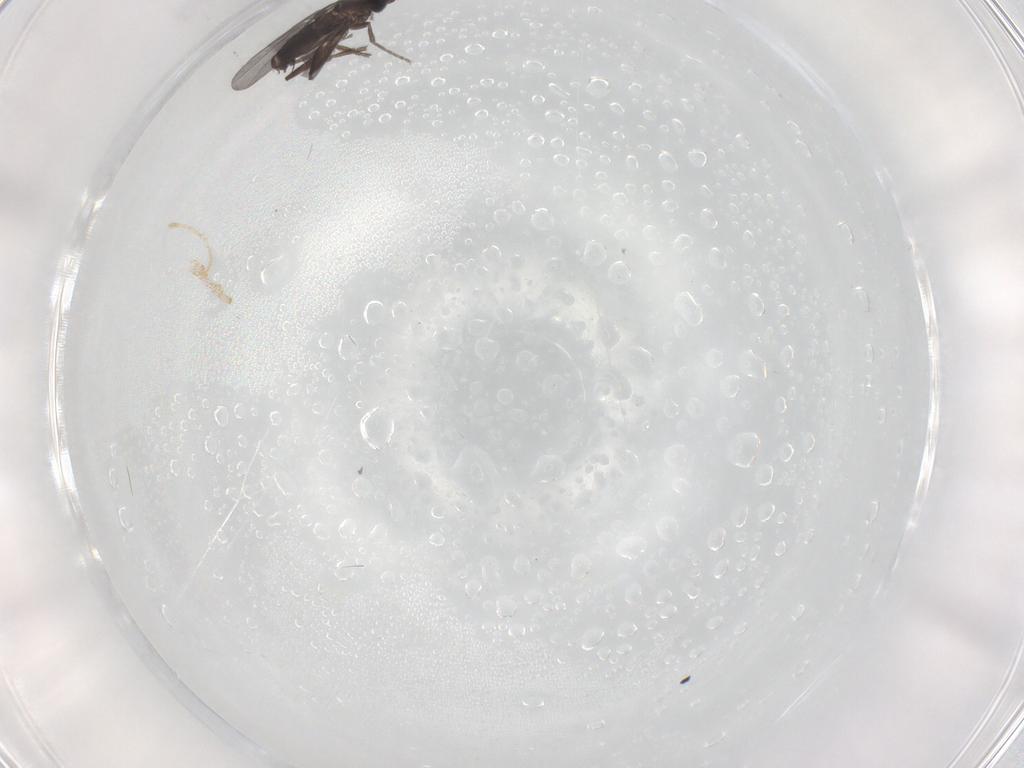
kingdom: Animalia
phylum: Arthropoda
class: Insecta
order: Diptera
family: Phoridae
